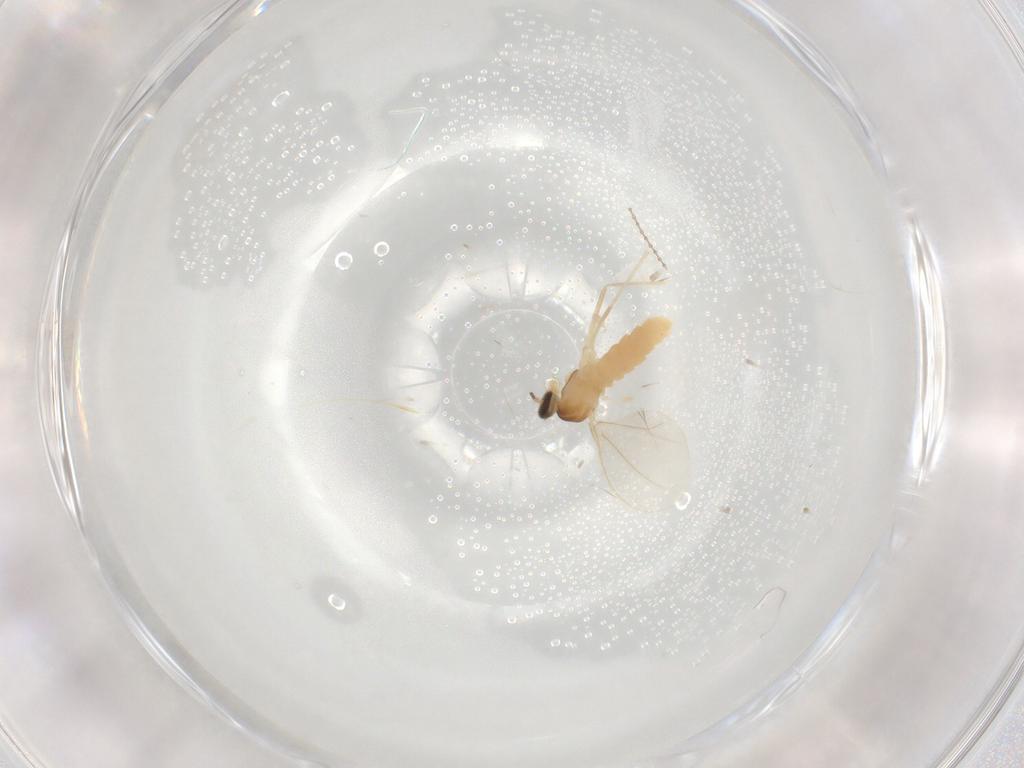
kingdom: Animalia
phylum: Arthropoda
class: Insecta
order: Diptera
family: Cecidomyiidae
